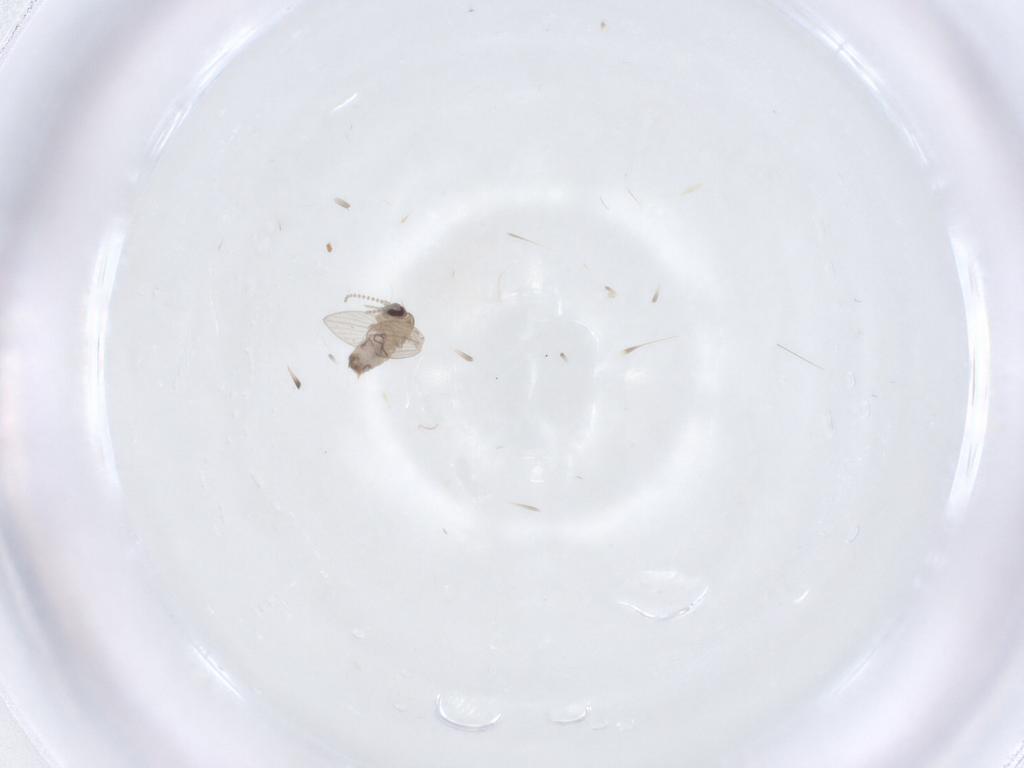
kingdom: Animalia
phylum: Arthropoda
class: Insecta
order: Diptera
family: Psychodidae
